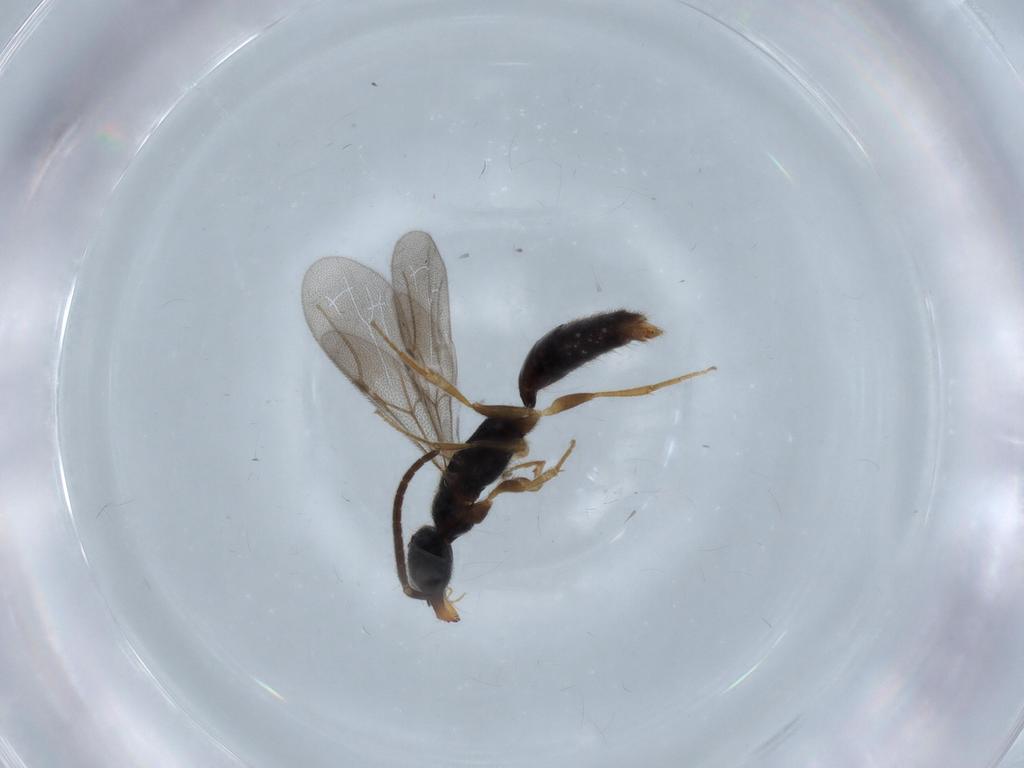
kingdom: Animalia
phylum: Arthropoda
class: Insecta
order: Hymenoptera
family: Bethylidae
